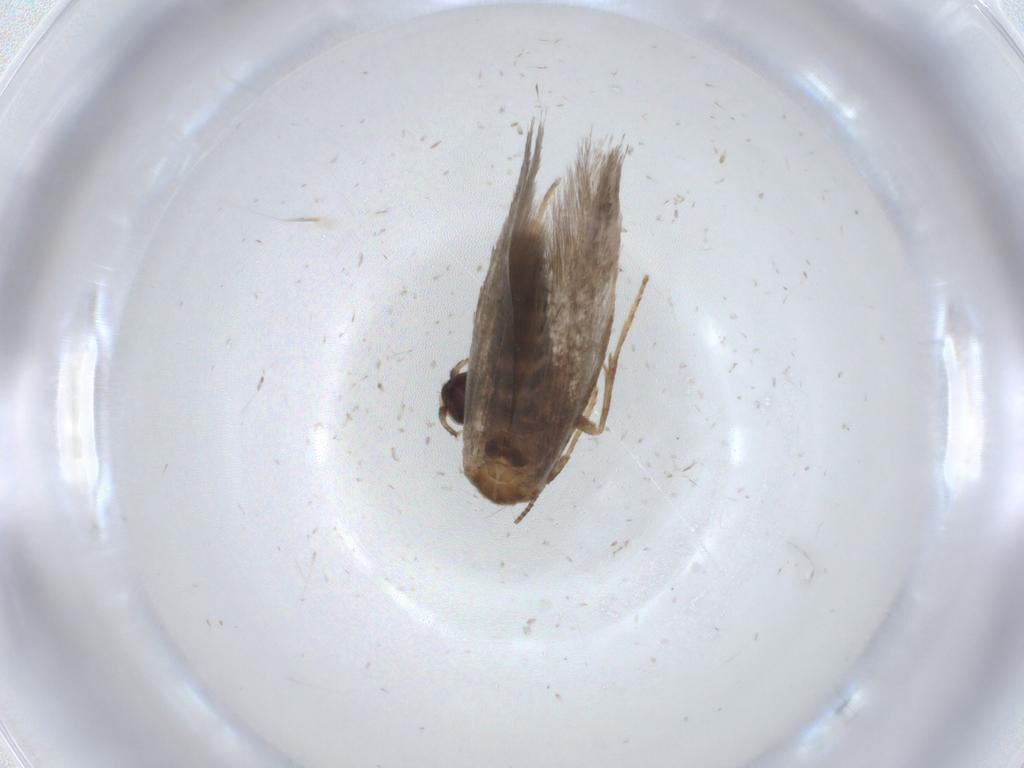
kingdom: Animalia
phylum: Arthropoda
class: Insecta
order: Lepidoptera
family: Nepticulidae
